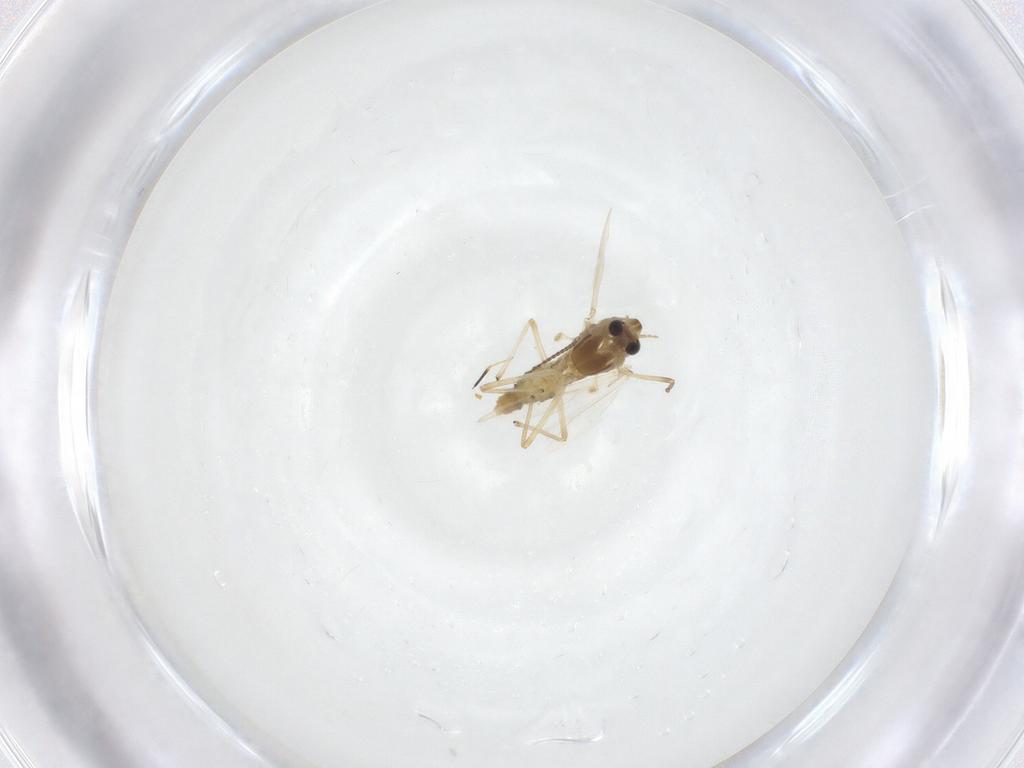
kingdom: Animalia
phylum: Arthropoda
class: Insecta
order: Diptera
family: Chironomidae
